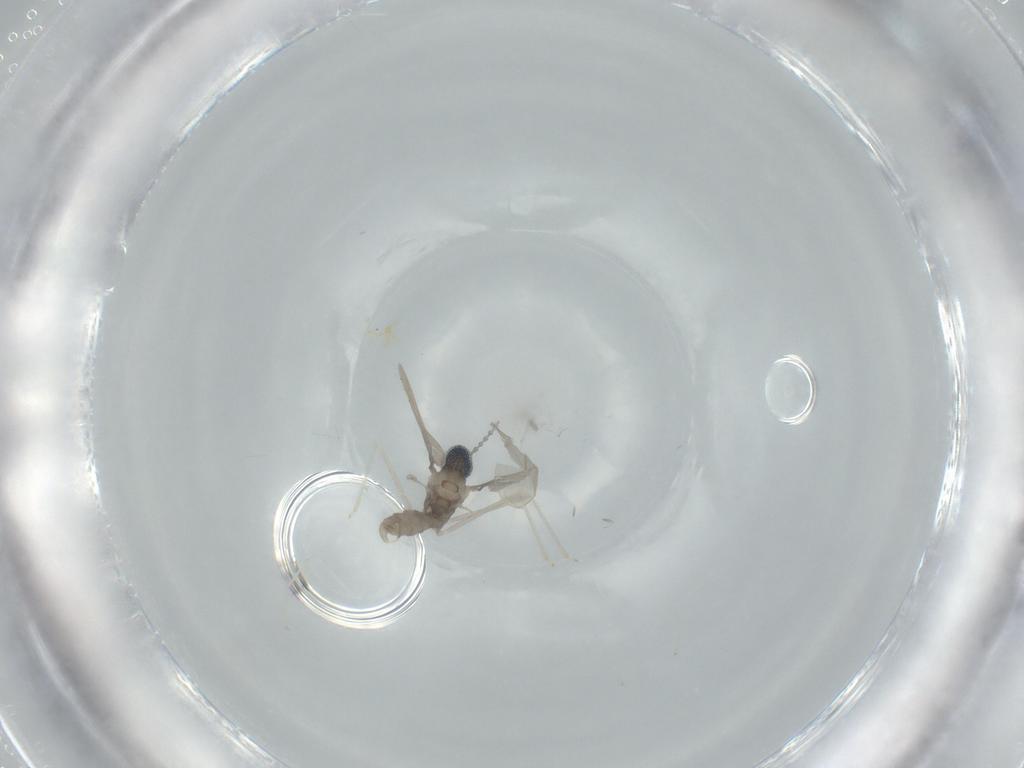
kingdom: Animalia
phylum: Arthropoda
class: Insecta
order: Diptera
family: Cecidomyiidae
